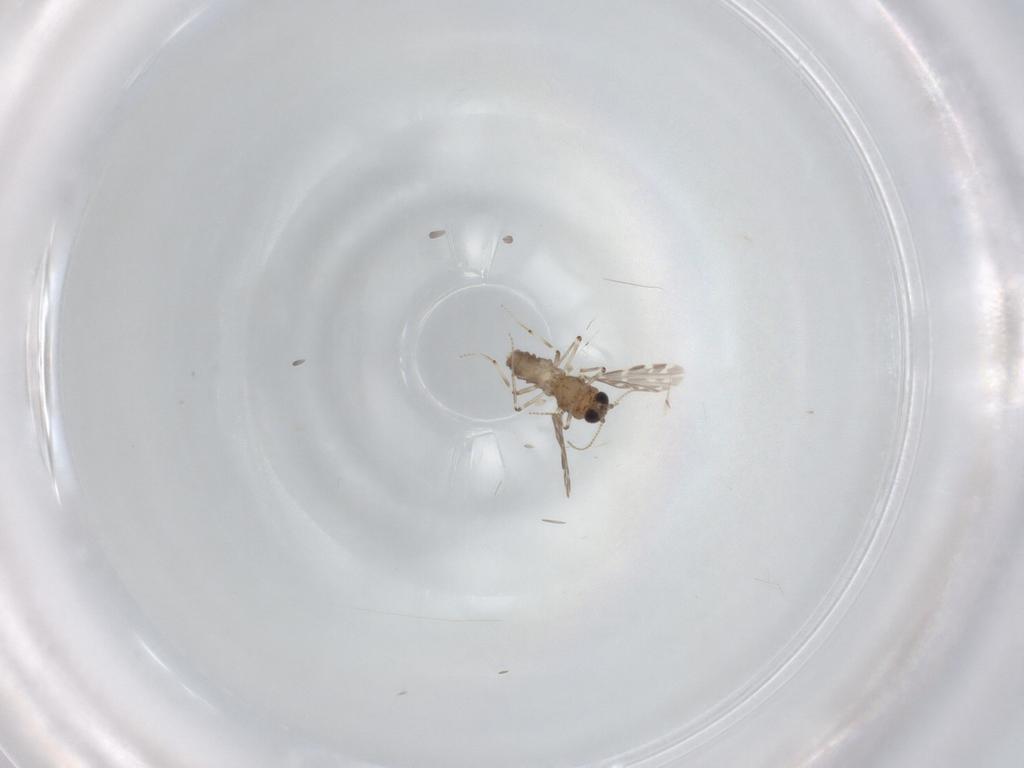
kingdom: Animalia
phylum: Arthropoda
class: Insecta
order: Diptera
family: Ceratopogonidae
